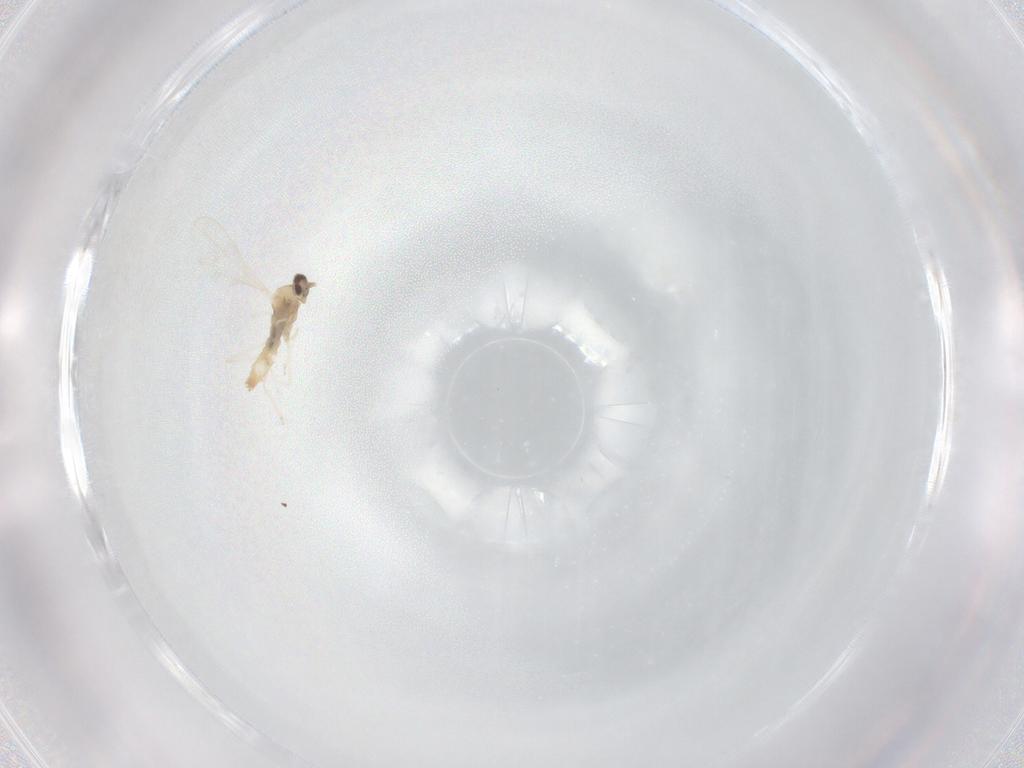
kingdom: Animalia
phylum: Arthropoda
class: Insecta
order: Diptera
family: Cecidomyiidae
